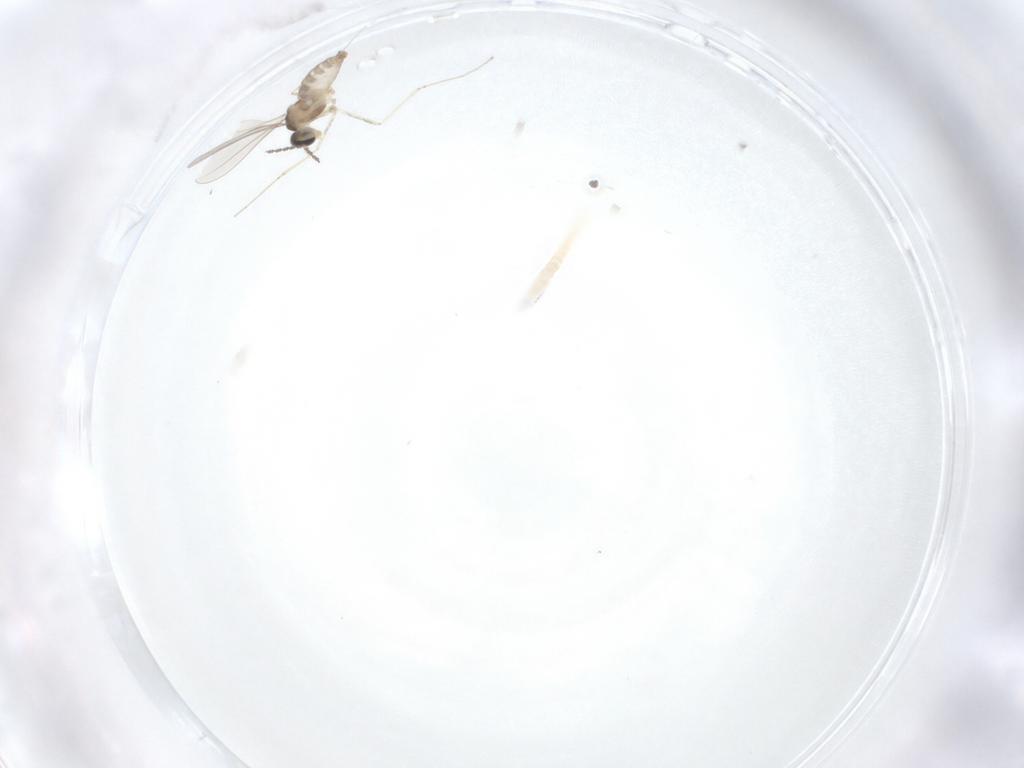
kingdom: Animalia
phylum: Arthropoda
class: Insecta
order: Diptera
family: Cecidomyiidae
